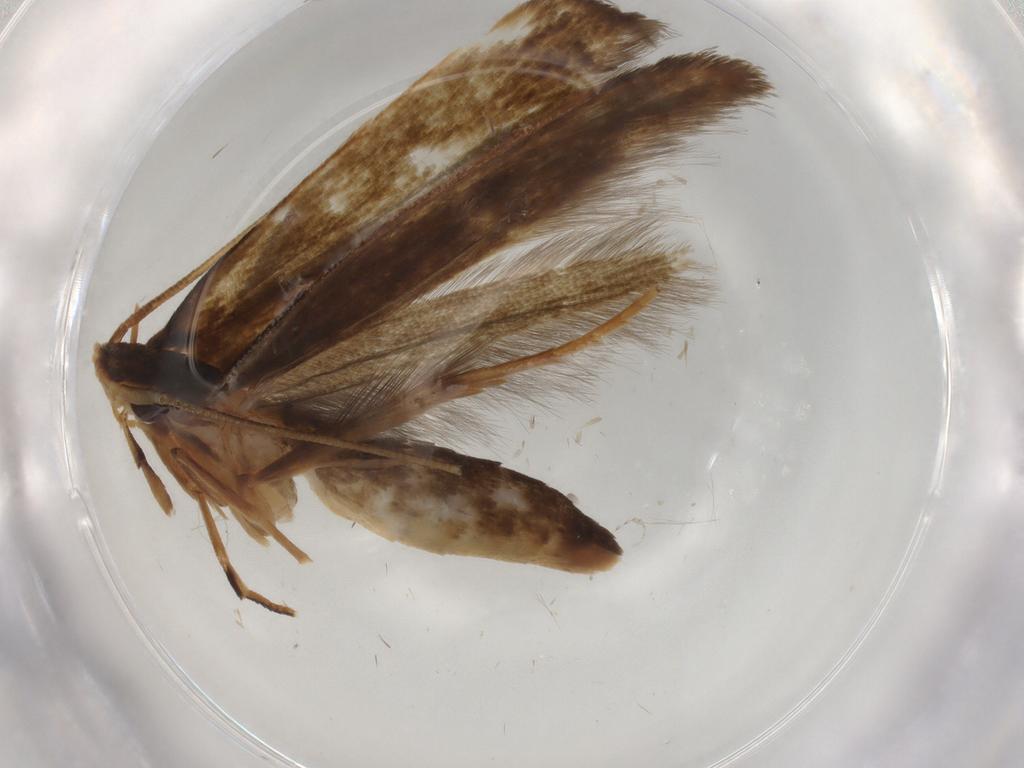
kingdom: Animalia
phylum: Arthropoda
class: Insecta
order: Lepidoptera
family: Tineidae
